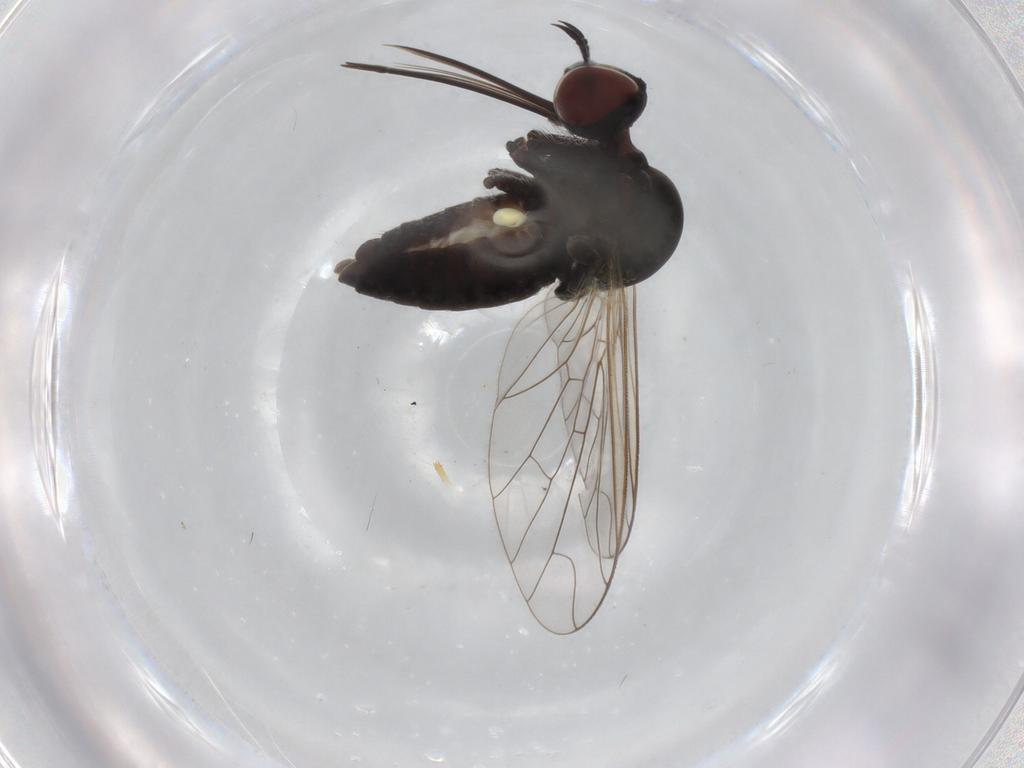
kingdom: Animalia
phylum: Arthropoda
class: Insecta
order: Diptera
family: Bombyliidae
